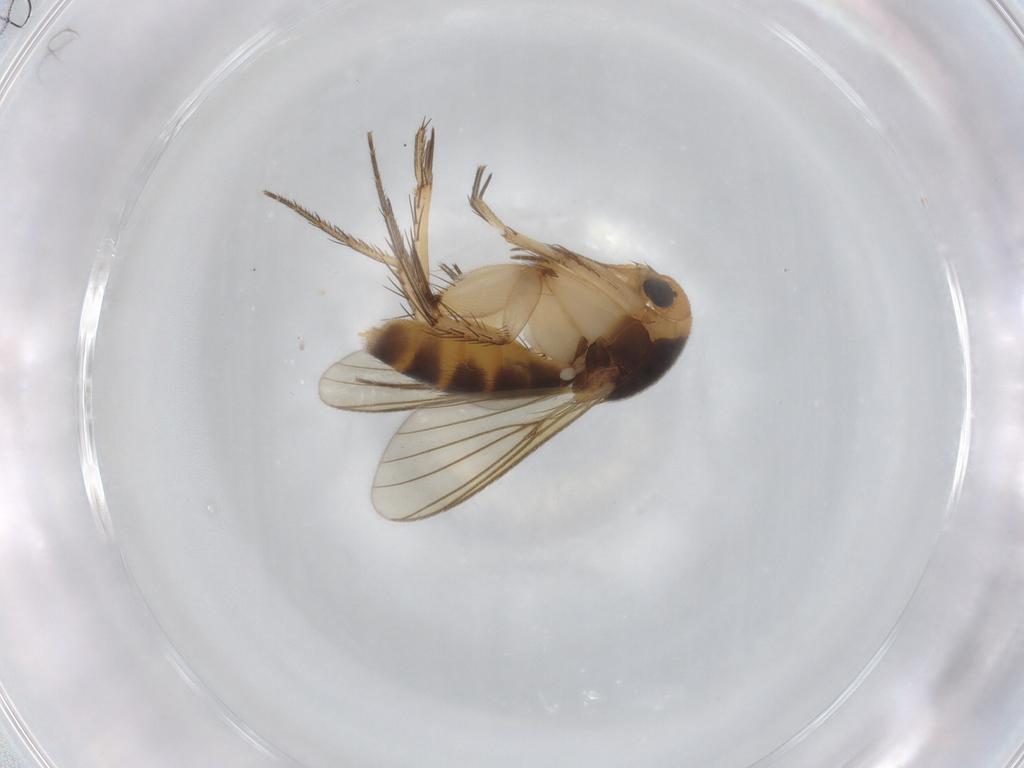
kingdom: Animalia
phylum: Arthropoda
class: Insecta
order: Diptera
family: Mycetophilidae
